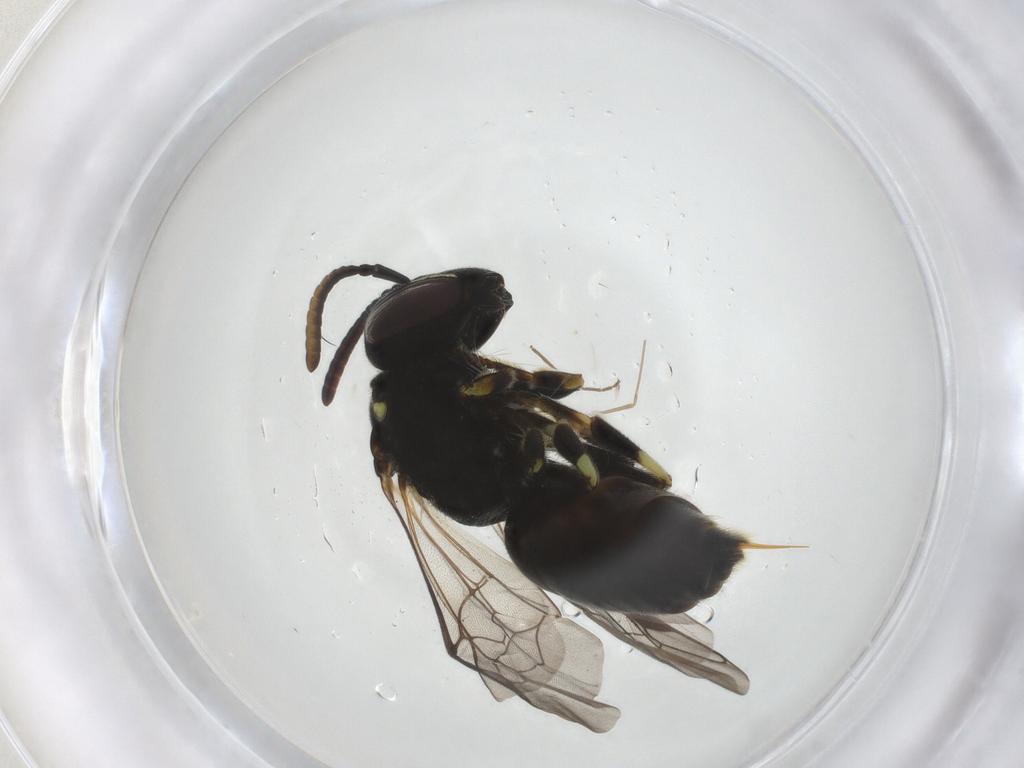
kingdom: Animalia
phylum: Arthropoda
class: Insecta
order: Hymenoptera
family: Colletidae
